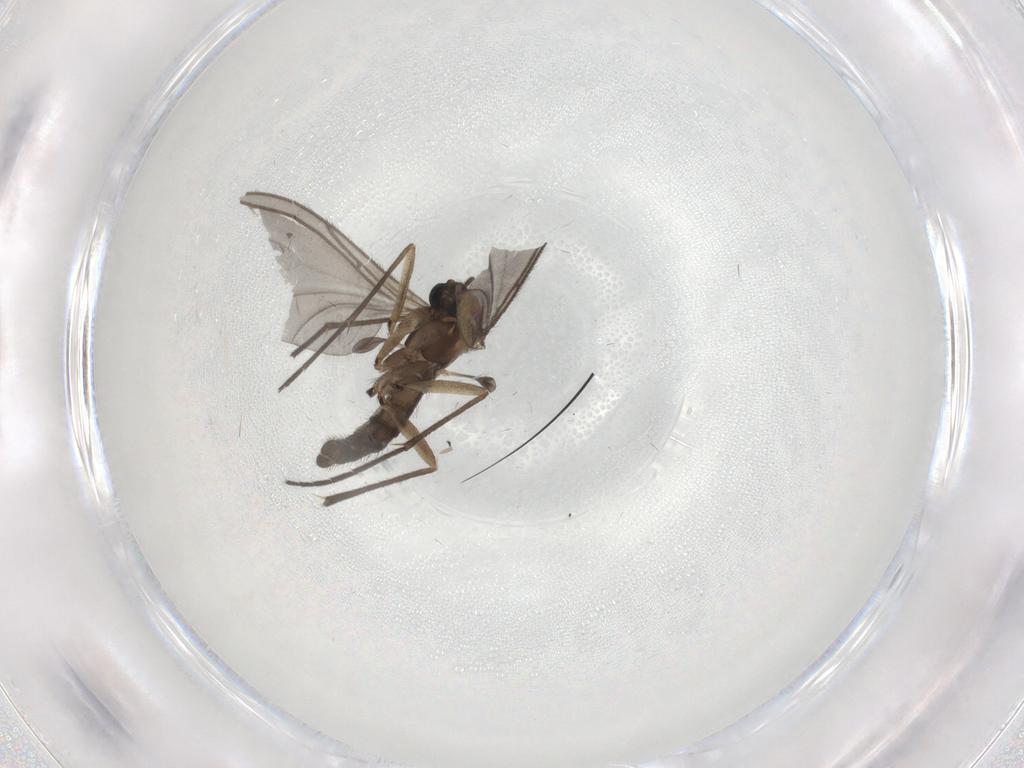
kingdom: Animalia
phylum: Arthropoda
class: Insecta
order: Diptera
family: Sciaridae
